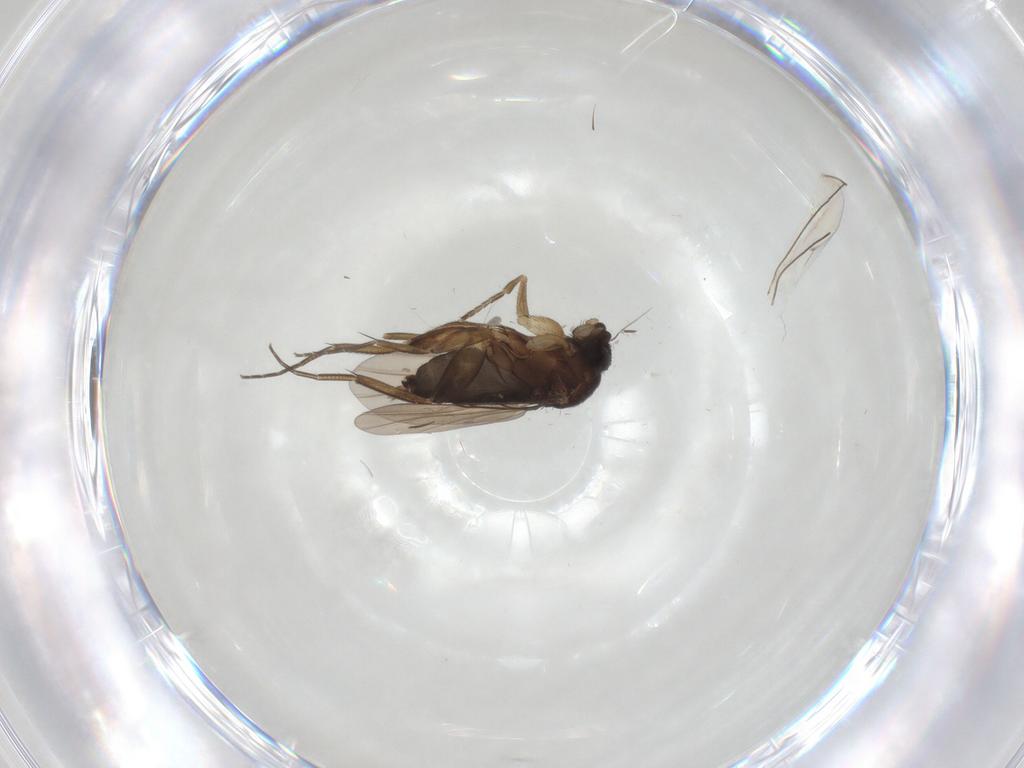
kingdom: Animalia
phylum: Arthropoda
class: Insecta
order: Diptera
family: Phoridae
